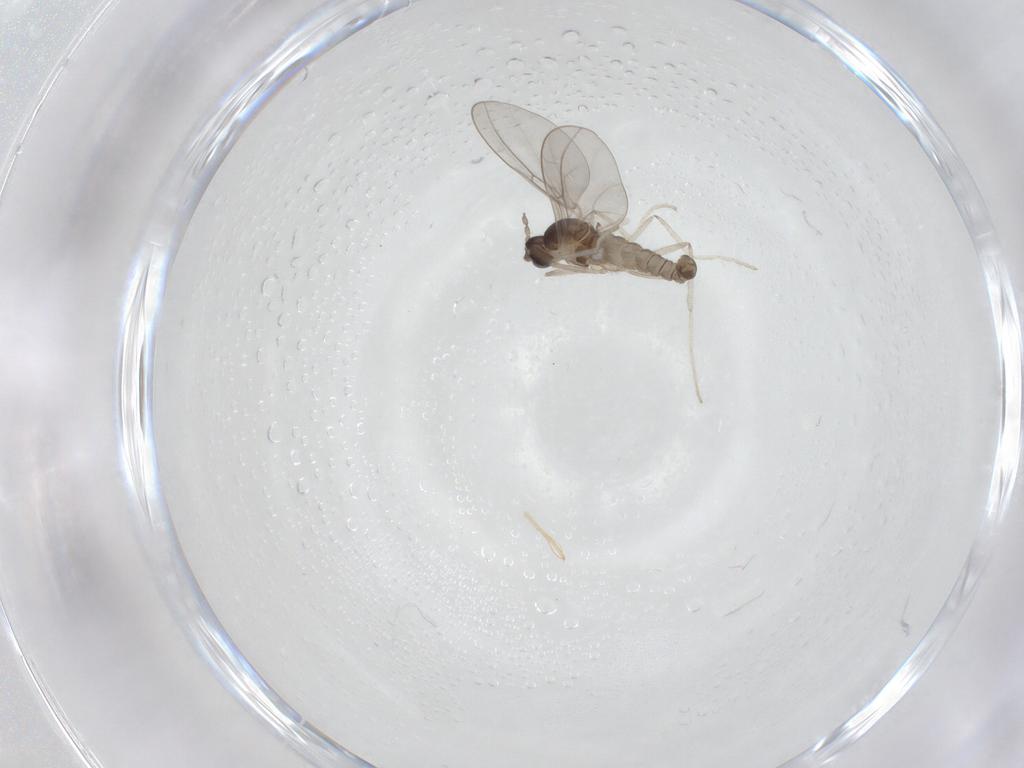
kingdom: Animalia
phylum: Arthropoda
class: Insecta
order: Diptera
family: Cecidomyiidae
